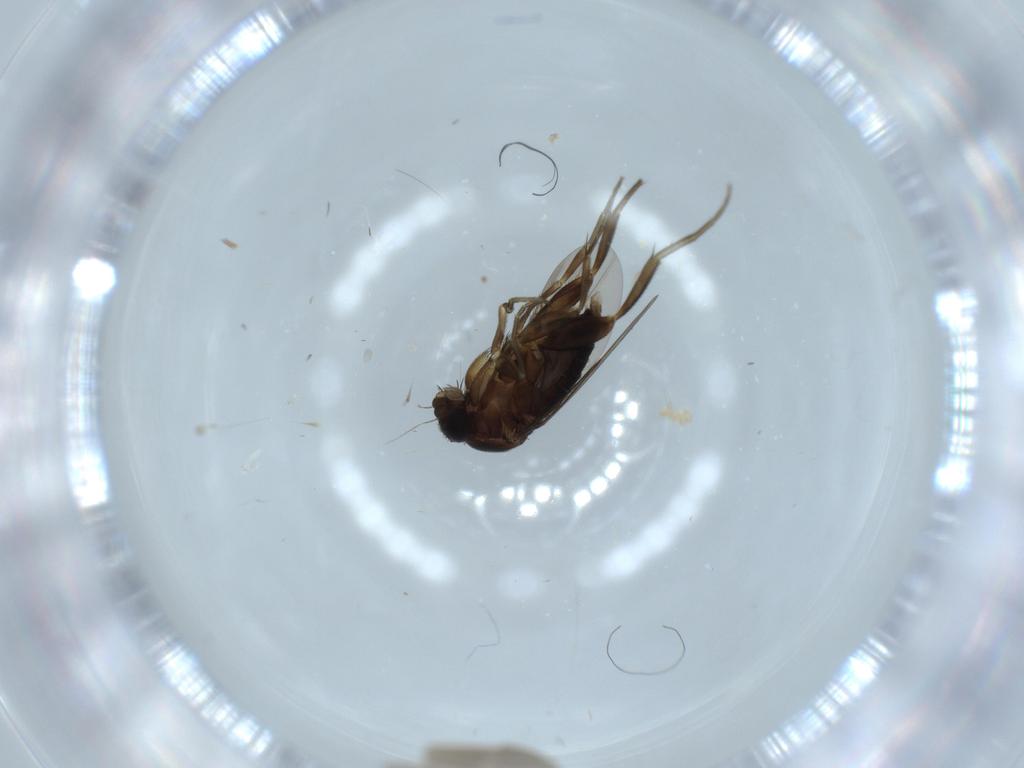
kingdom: Animalia
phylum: Arthropoda
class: Insecta
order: Diptera
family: Phoridae
